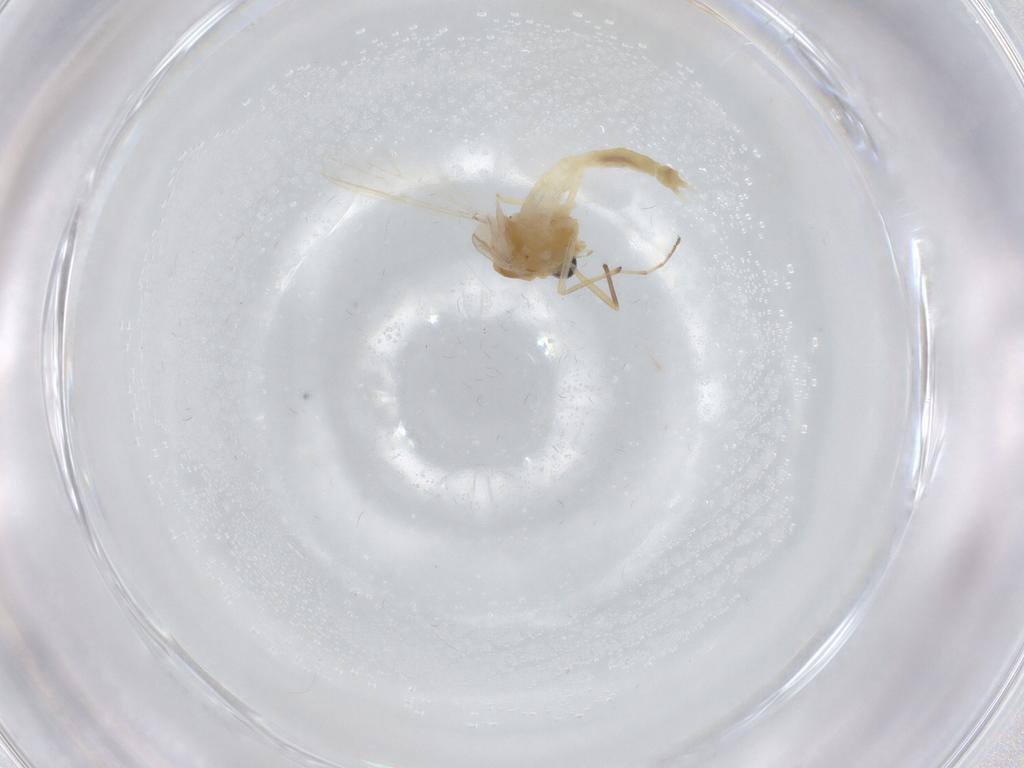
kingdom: Animalia
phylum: Arthropoda
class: Insecta
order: Diptera
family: Chironomidae
